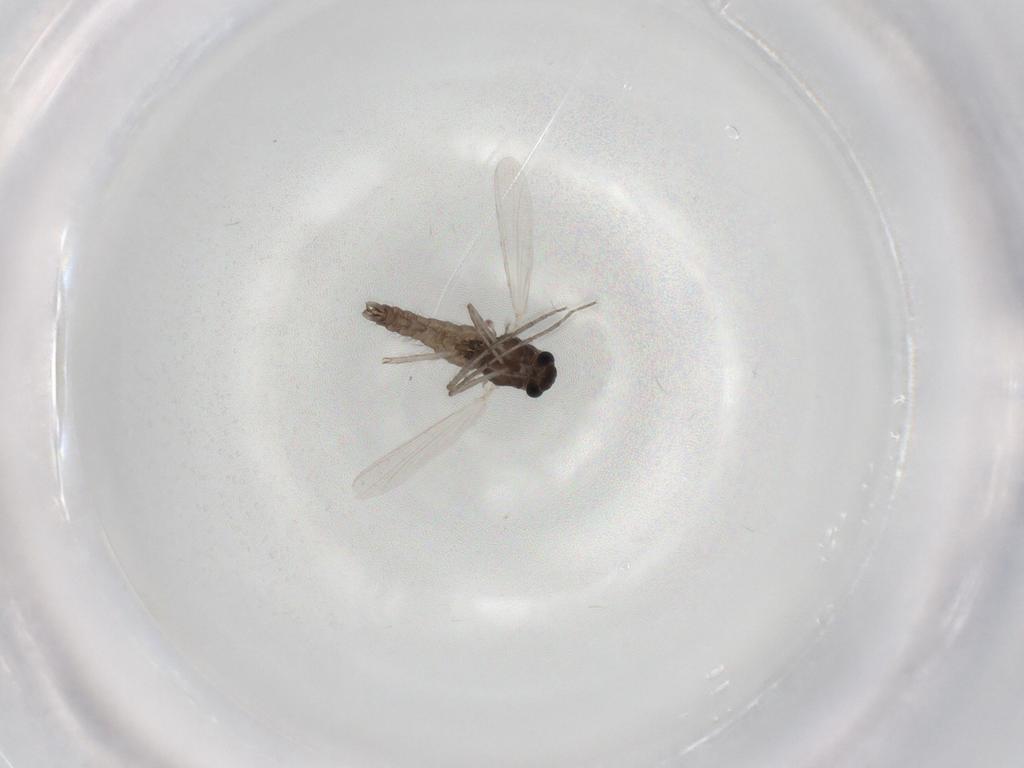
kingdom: Animalia
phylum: Arthropoda
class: Insecta
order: Diptera
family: Chironomidae
